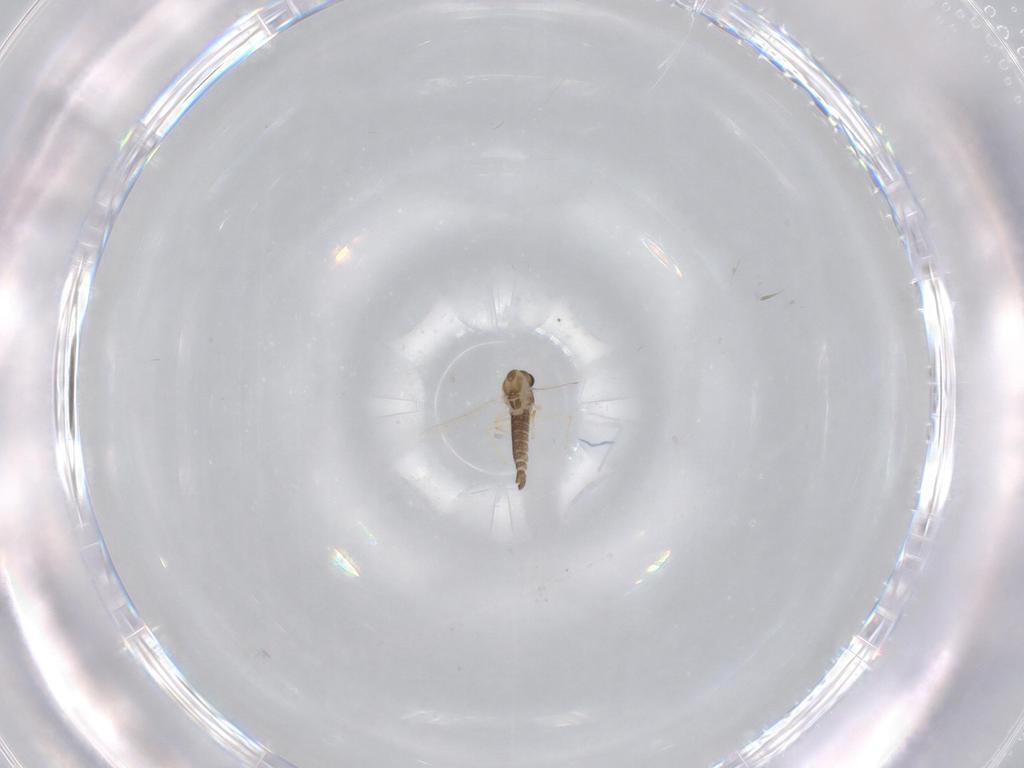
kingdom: Animalia
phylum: Arthropoda
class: Insecta
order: Diptera
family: Chironomidae
